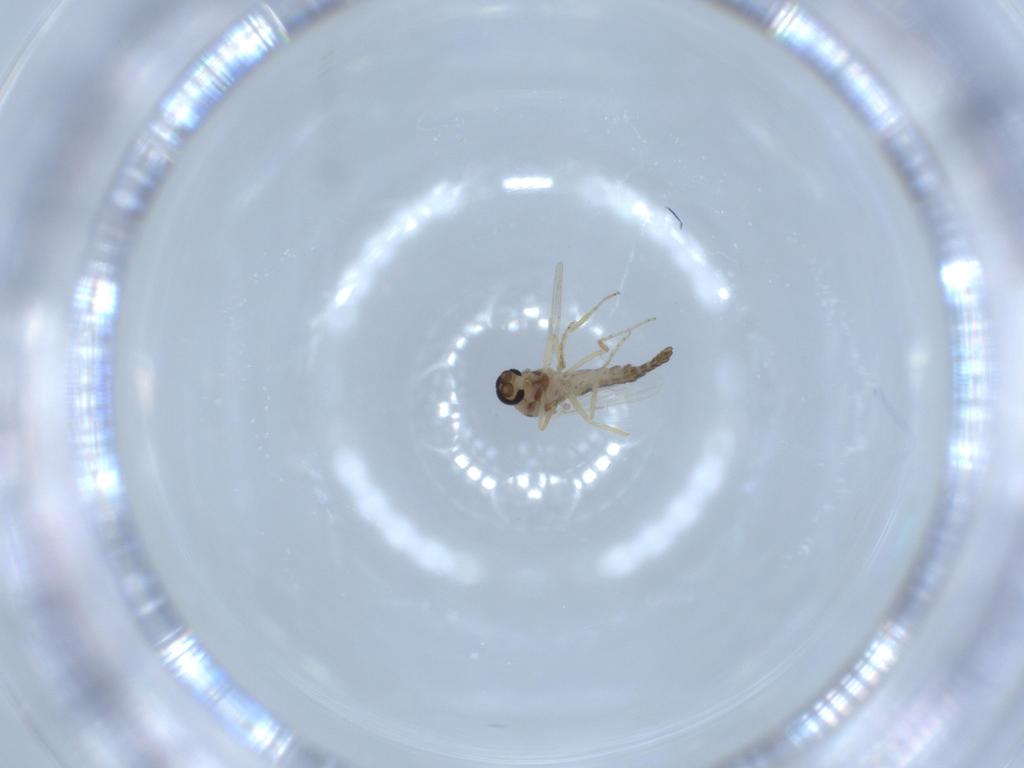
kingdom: Animalia
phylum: Arthropoda
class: Insecta
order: Diptera
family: Ceratopogonidae
